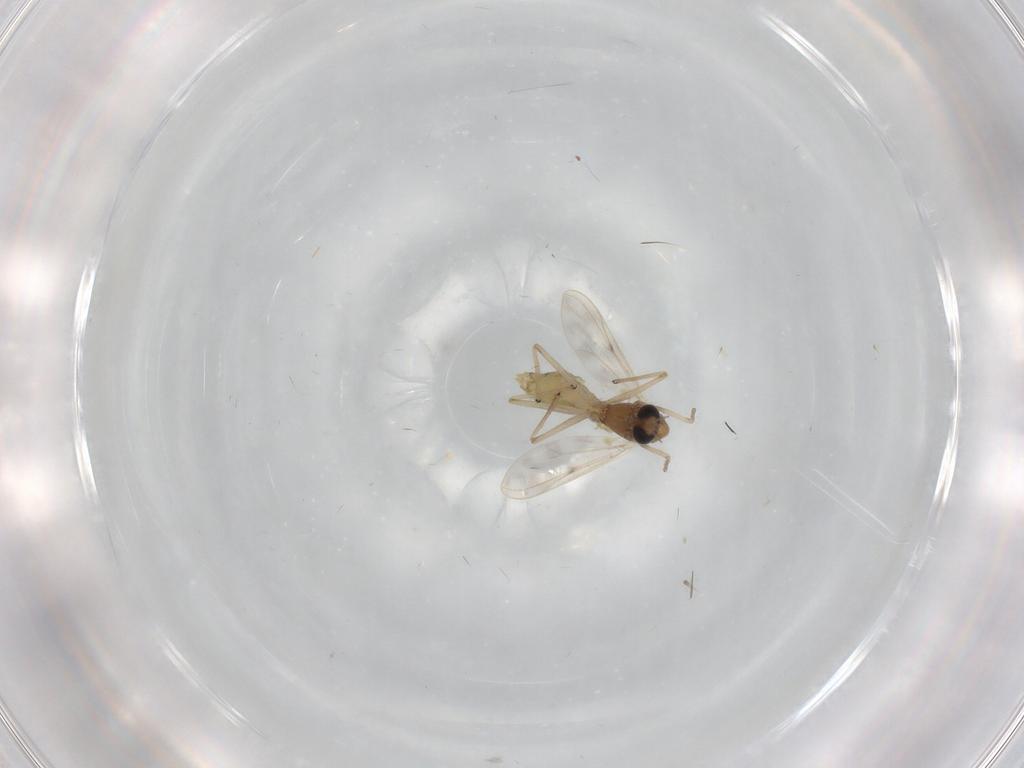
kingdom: Animalia
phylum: Arthropoda
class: Insecta
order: Diptera
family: Chironomidae
